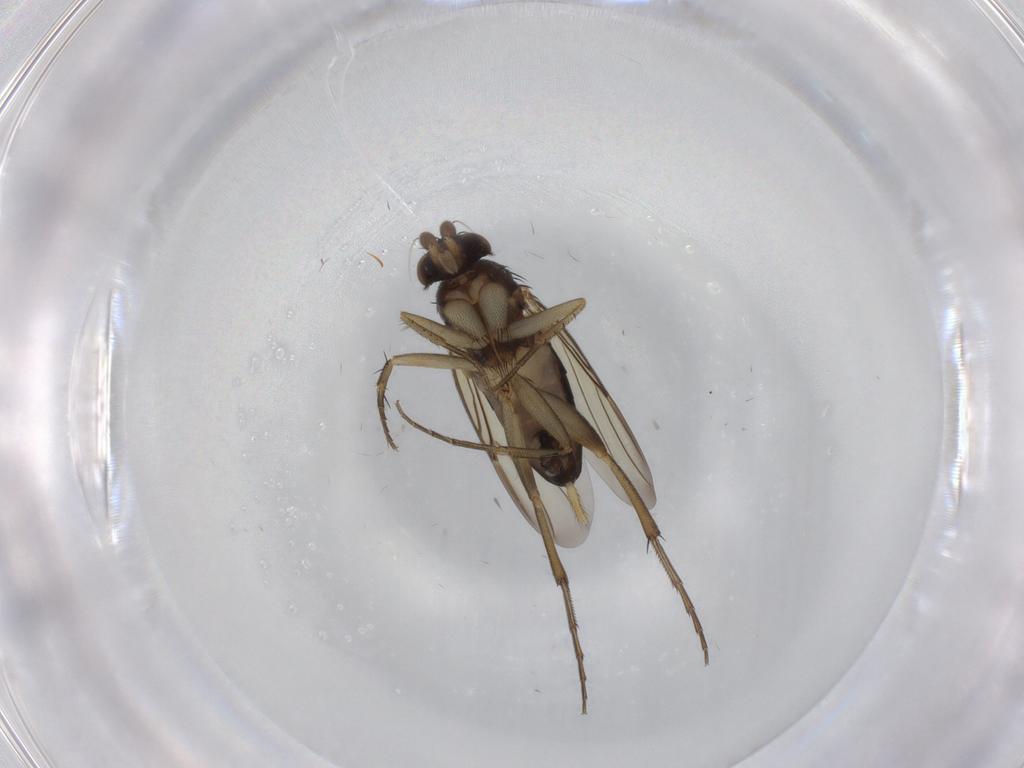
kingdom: Animalia
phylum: Arthropoda
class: Insecta
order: Diptera
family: Phoridae
